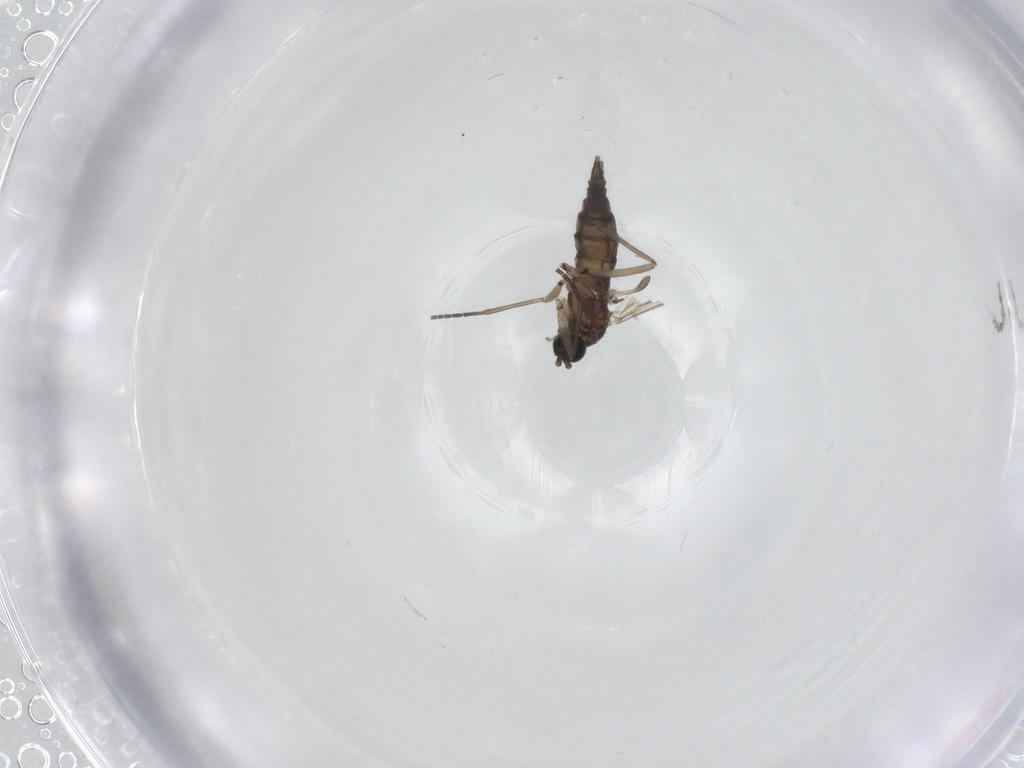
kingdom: Animalia
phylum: Arthropoda
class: Insecta
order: Diptera
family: Sciaridae
